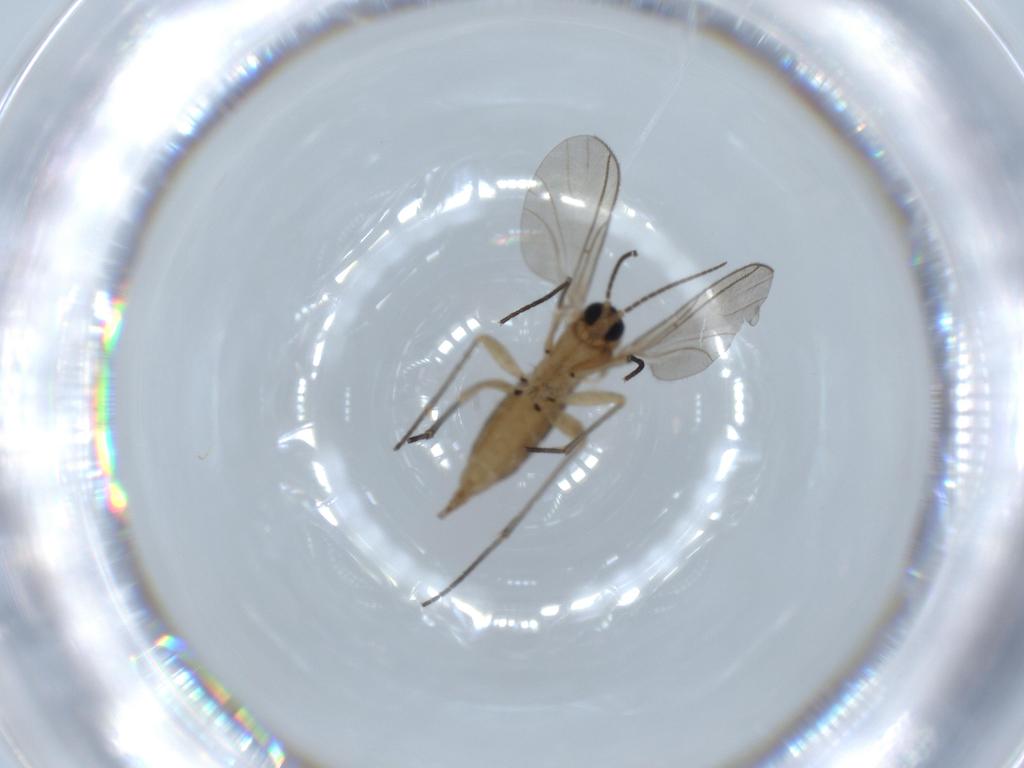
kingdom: Animalia
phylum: Arthropoda
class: Insecta
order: Diptera
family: Sciaridae
